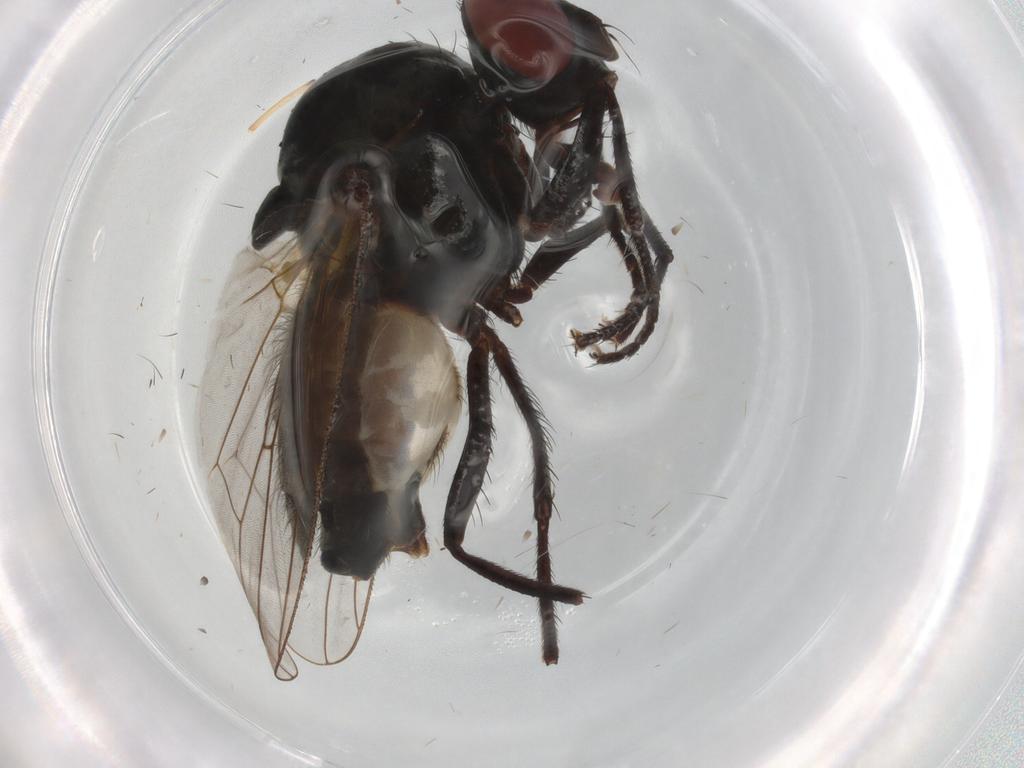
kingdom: Animalia
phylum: Arthropoda
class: Insecta
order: Diptera
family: Anthomyiidae
